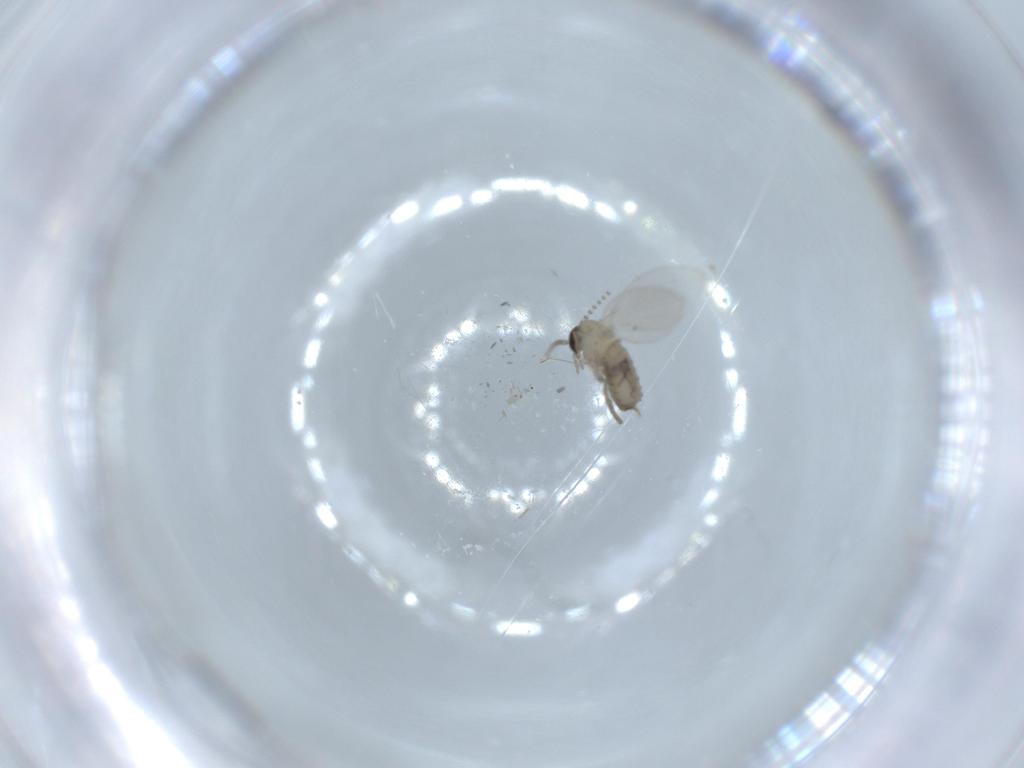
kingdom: Animalia
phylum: Arthropoda
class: Insecta
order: Diptera
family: Psychodidae
